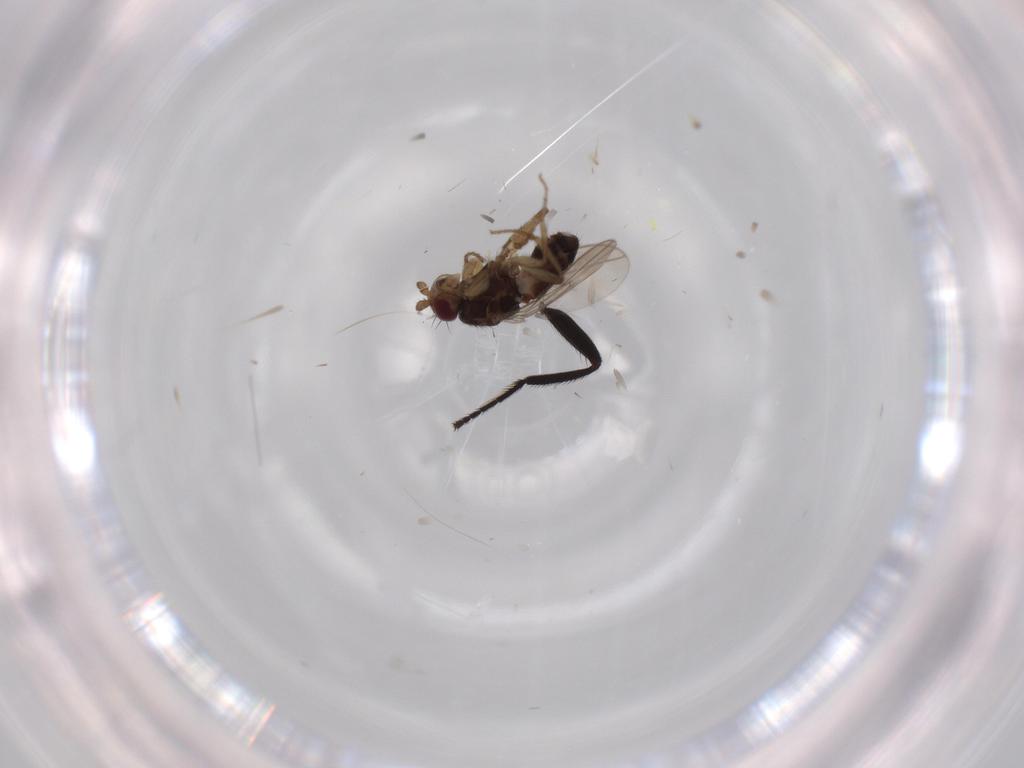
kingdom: Animalia
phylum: Arthropoda
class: Insecta
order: Diptera
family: Sphaeroceridae
